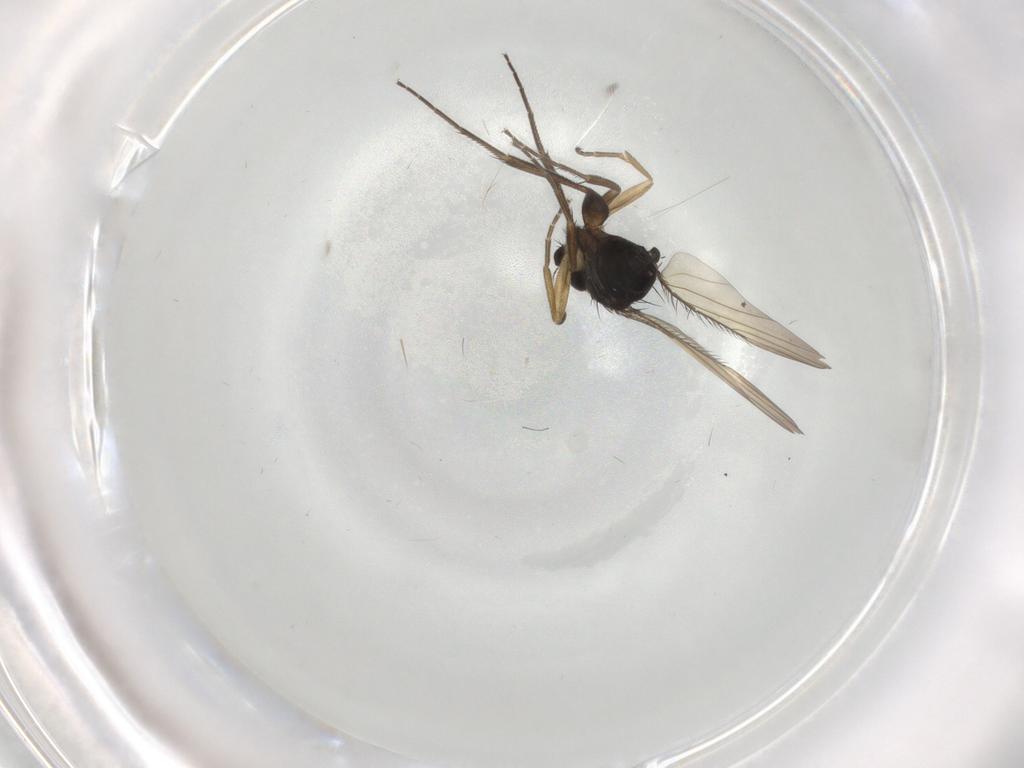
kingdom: Animalia
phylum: Arthropoda
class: Insecta
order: Diptera
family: Phoridae
